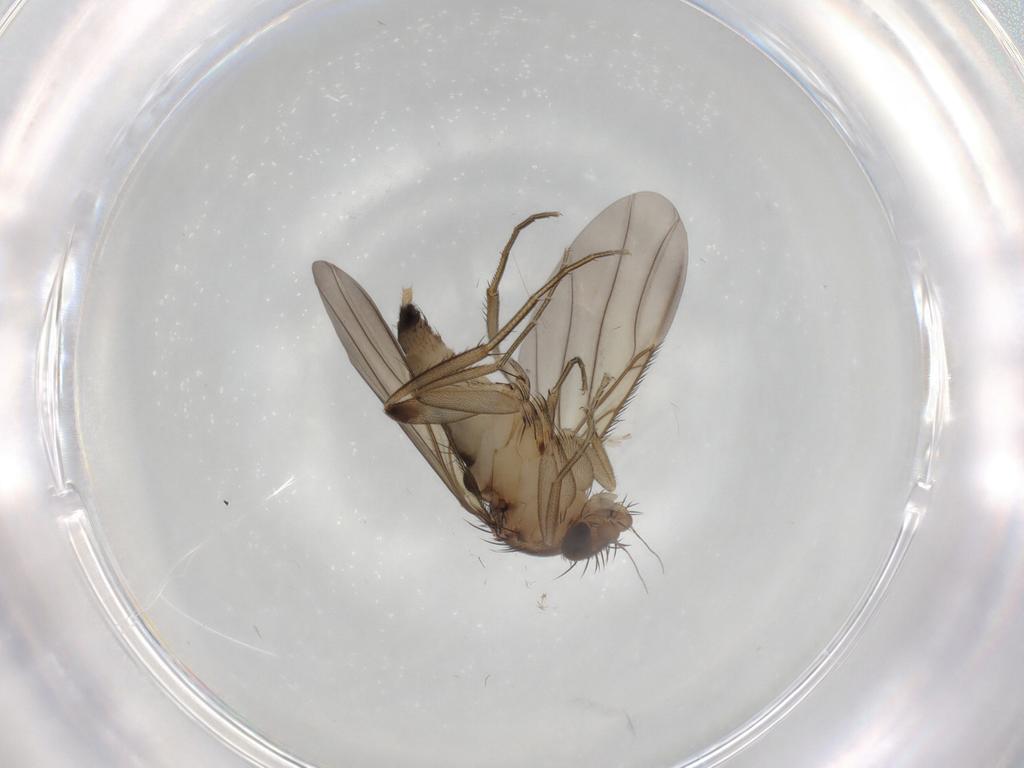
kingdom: Animalia
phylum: Arthropoda
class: Insecta
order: Diptera
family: Phoridae
